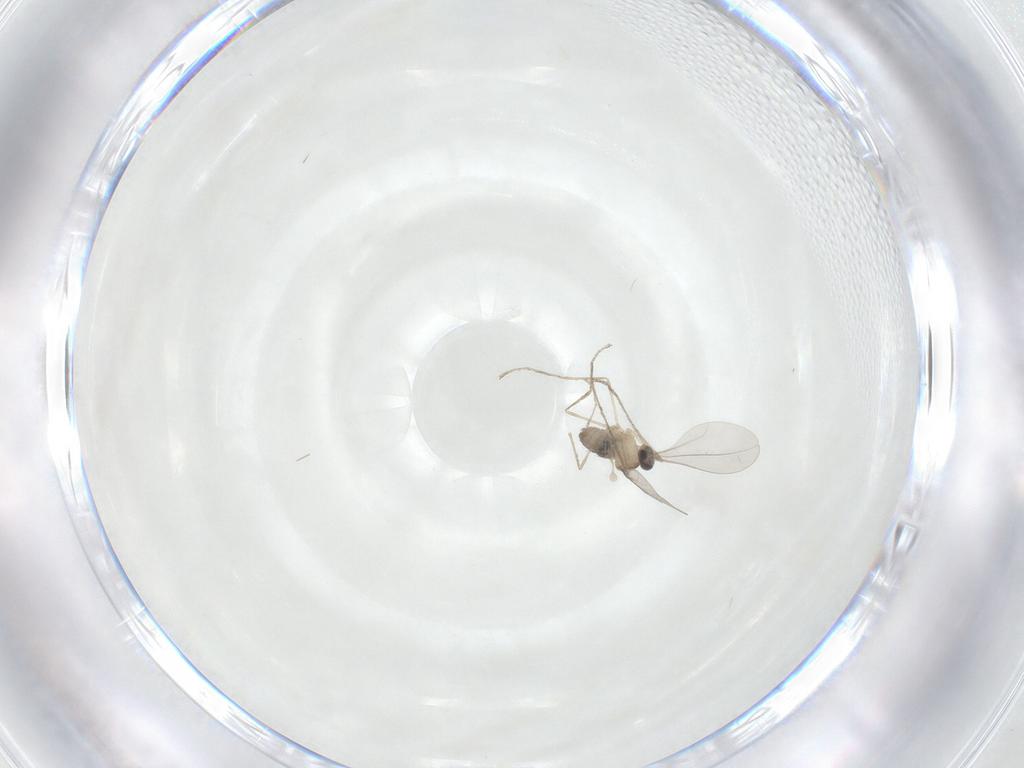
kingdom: Animalia
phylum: Arthropoda
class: Insecta
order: Diptera
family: Cecidomyiidae
